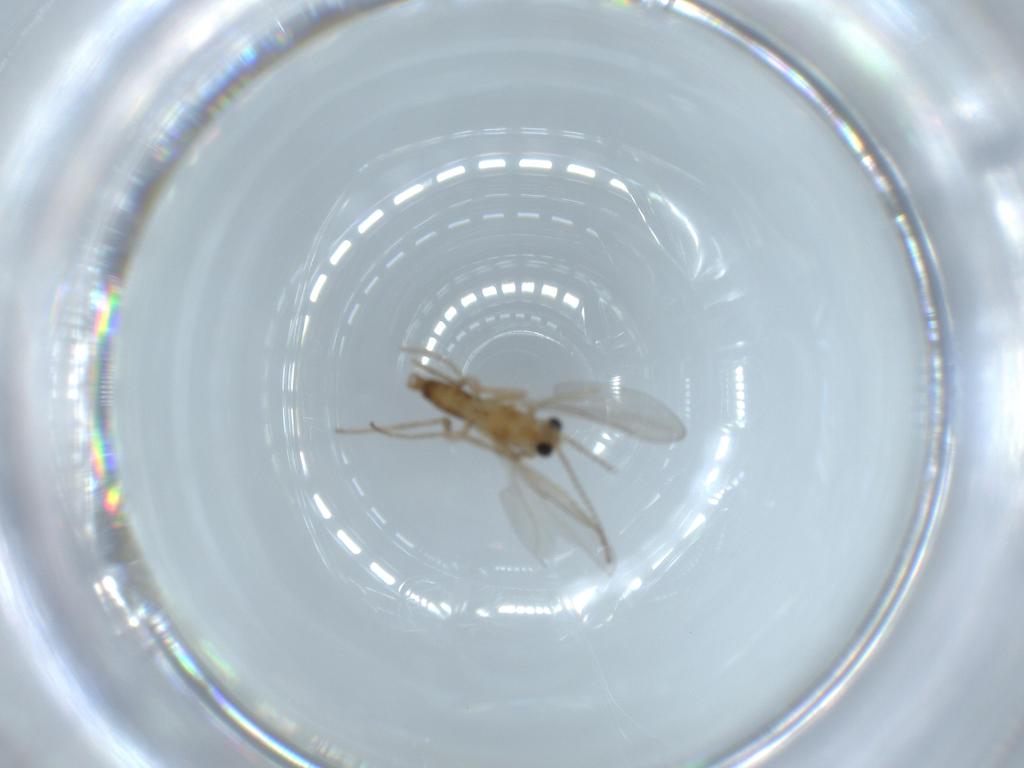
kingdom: Animalia
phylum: Arthropoda
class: Insecta
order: Diptera
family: Cecidomyiidae
